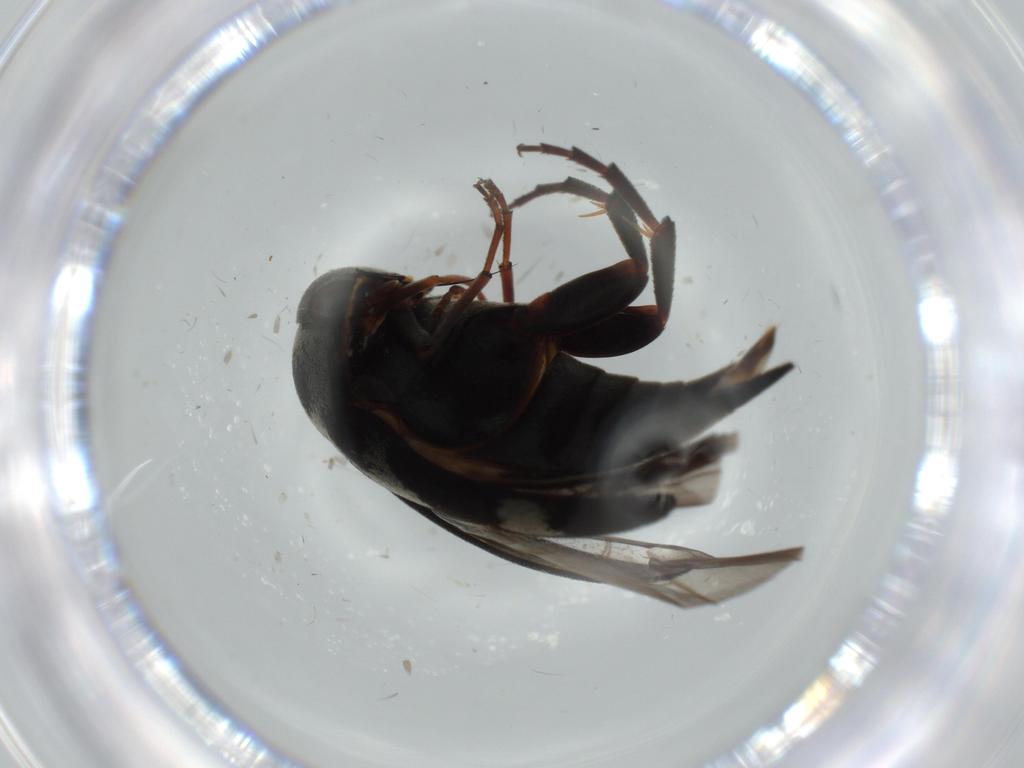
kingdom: Animalia
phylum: Arthropoda
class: Insecta
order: Coleoptera
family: Mordellidae
